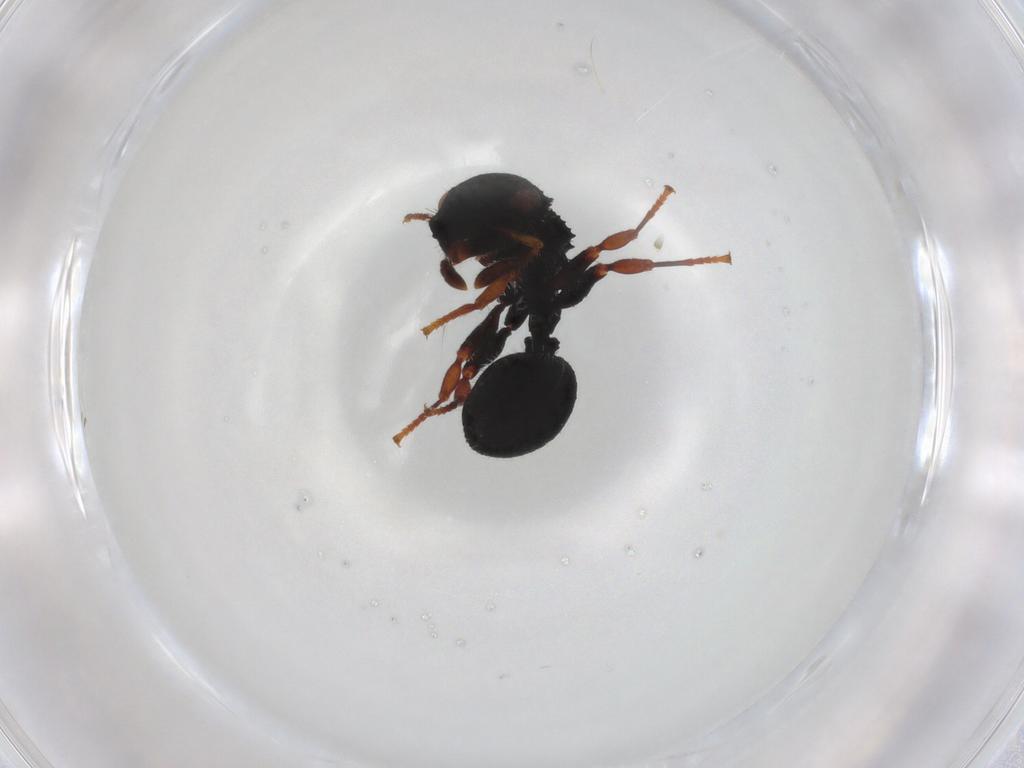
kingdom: Animalia
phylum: Arthropoda
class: Insecta
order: Hymenoptera
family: Formicidae
